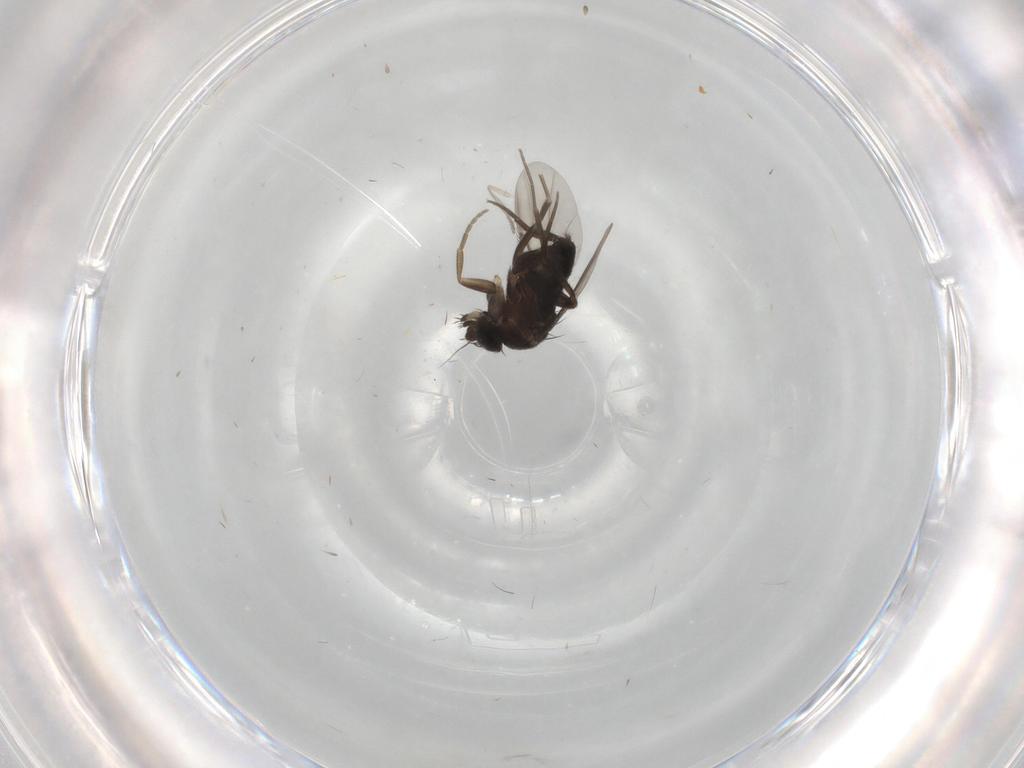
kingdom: Animalia
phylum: Arthropoda
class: Insecta
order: Diptera
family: Phoridae
